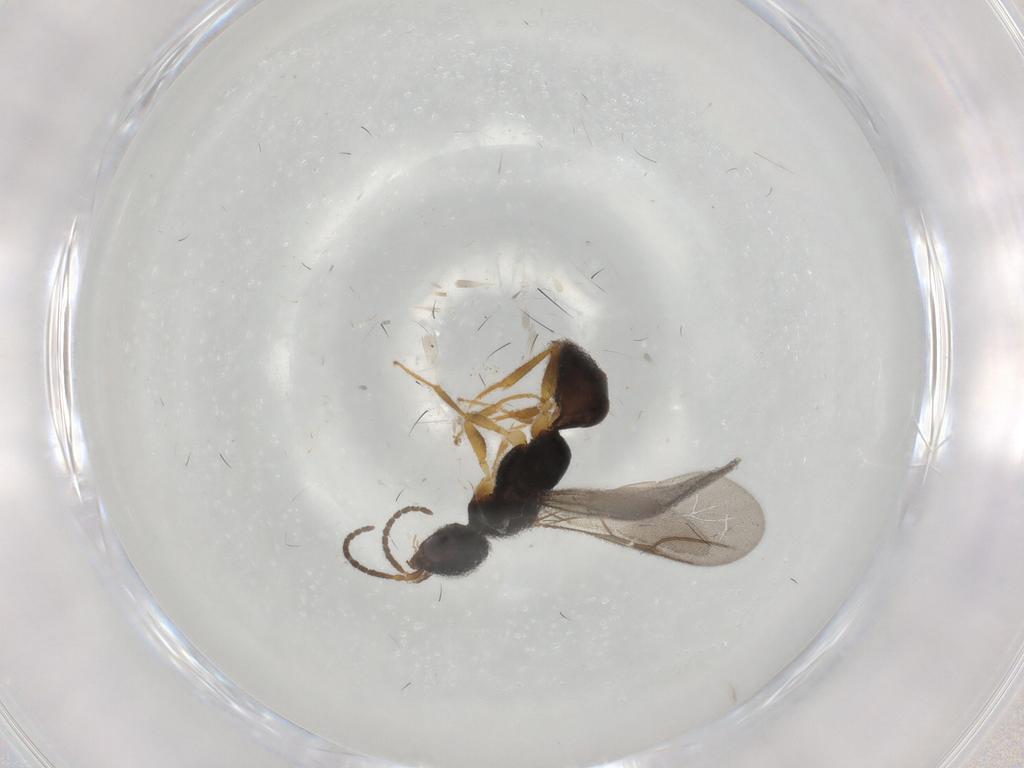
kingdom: Animalia
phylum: Arthropoda
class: Insecta
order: Hymenoptera
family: Bethylidae
